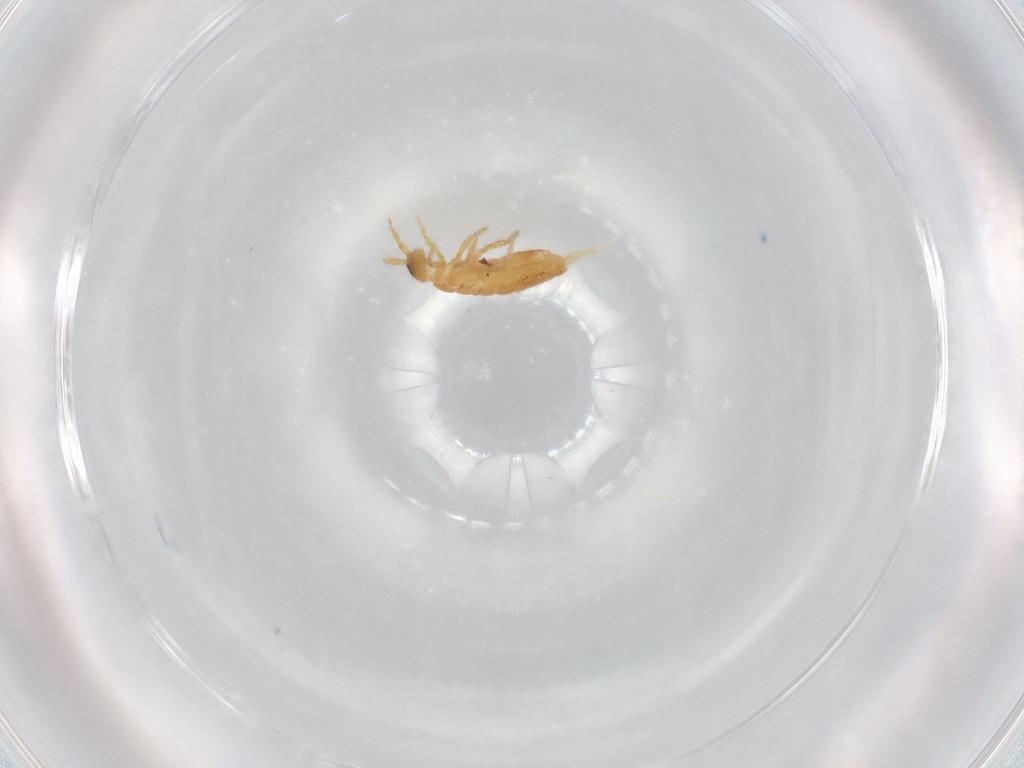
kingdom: Animalia
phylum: Arthropoda
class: Collembola
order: Entomobryomorpha
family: Entomobryidae
